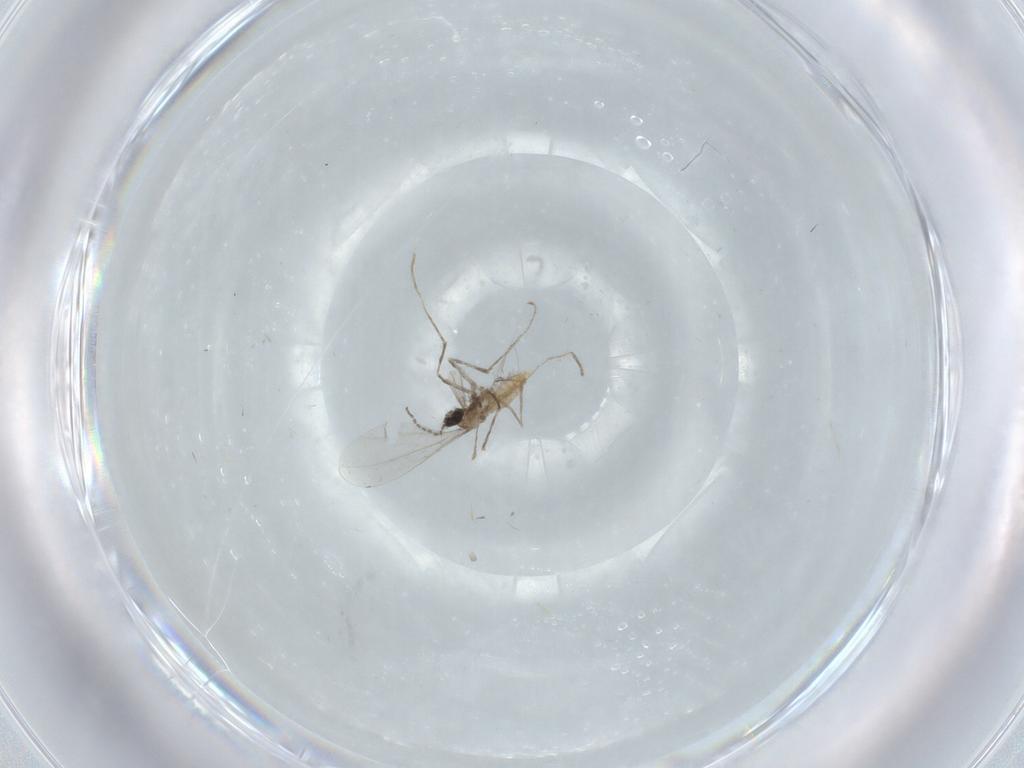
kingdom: Animalia
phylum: Arthropoda
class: Insecta
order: Diptera
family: Cecidomyiidae
